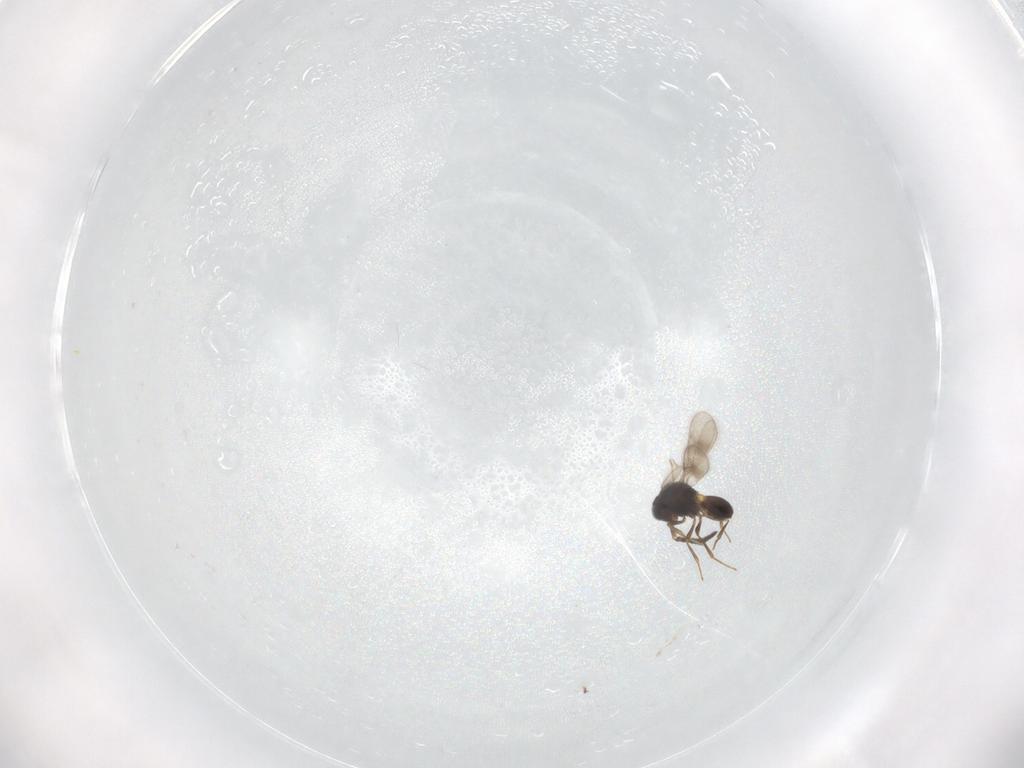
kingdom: Animalia
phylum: Arthropoda
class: Insecta
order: Hymenoptera
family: Scelionidae
